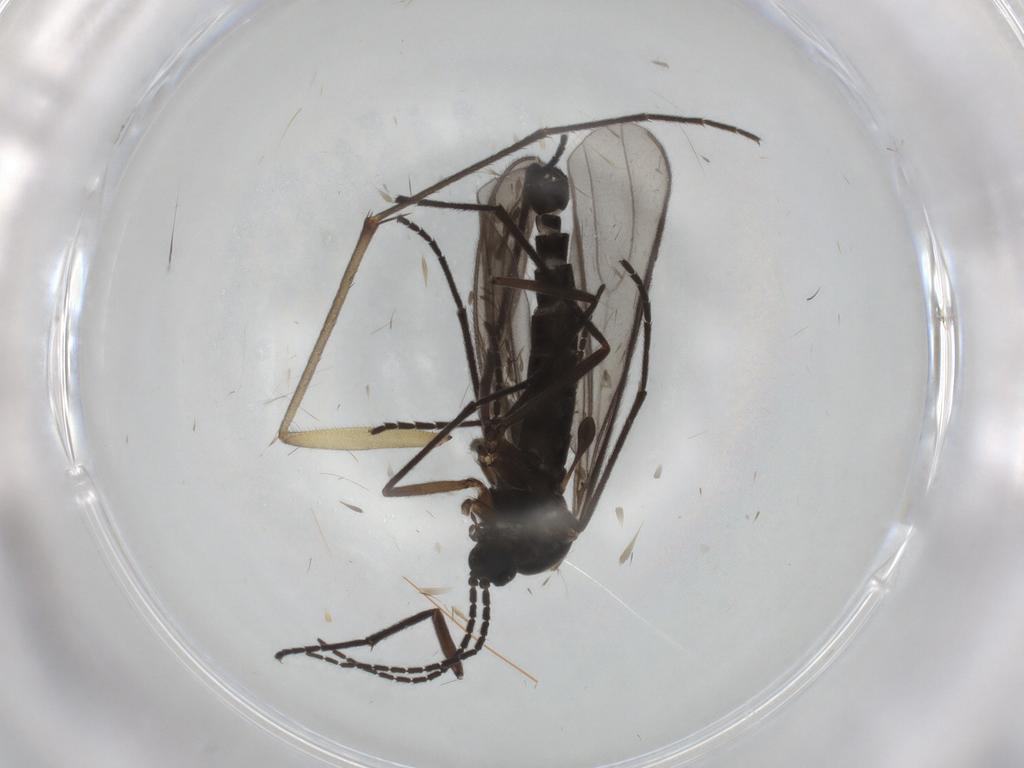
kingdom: Animalia
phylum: Arthropoda
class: Insecta
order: Diptera
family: Sciaridae
